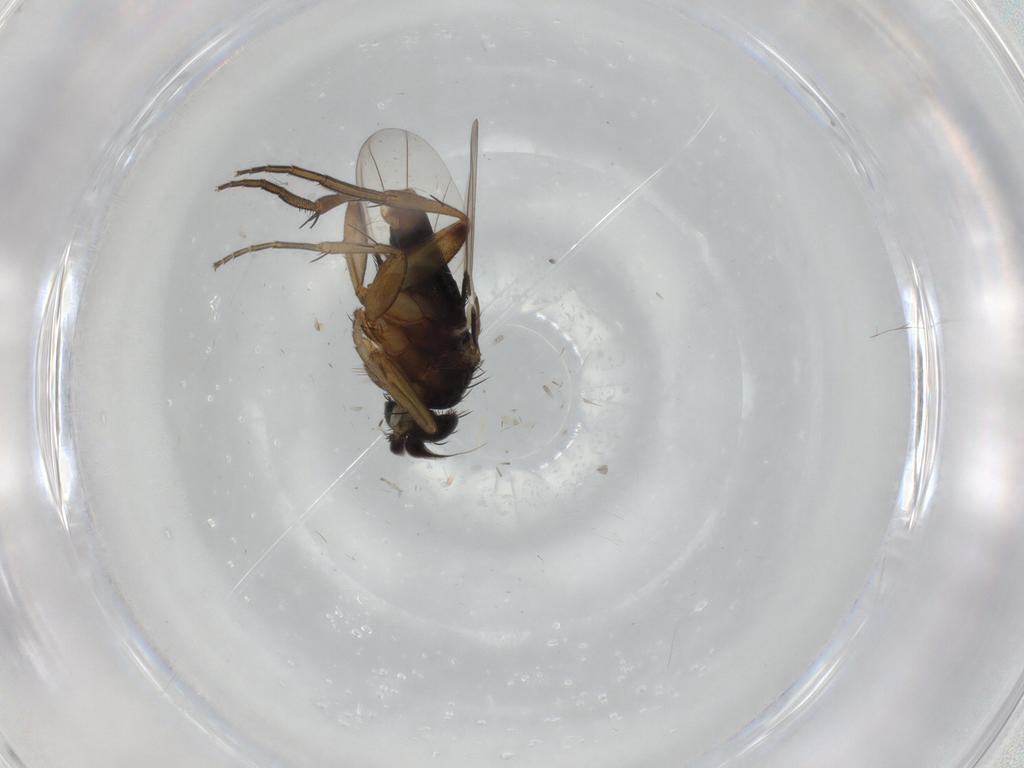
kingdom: Animalia
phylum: Arthropoda
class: Insecta
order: Diptera
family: Phoridae
